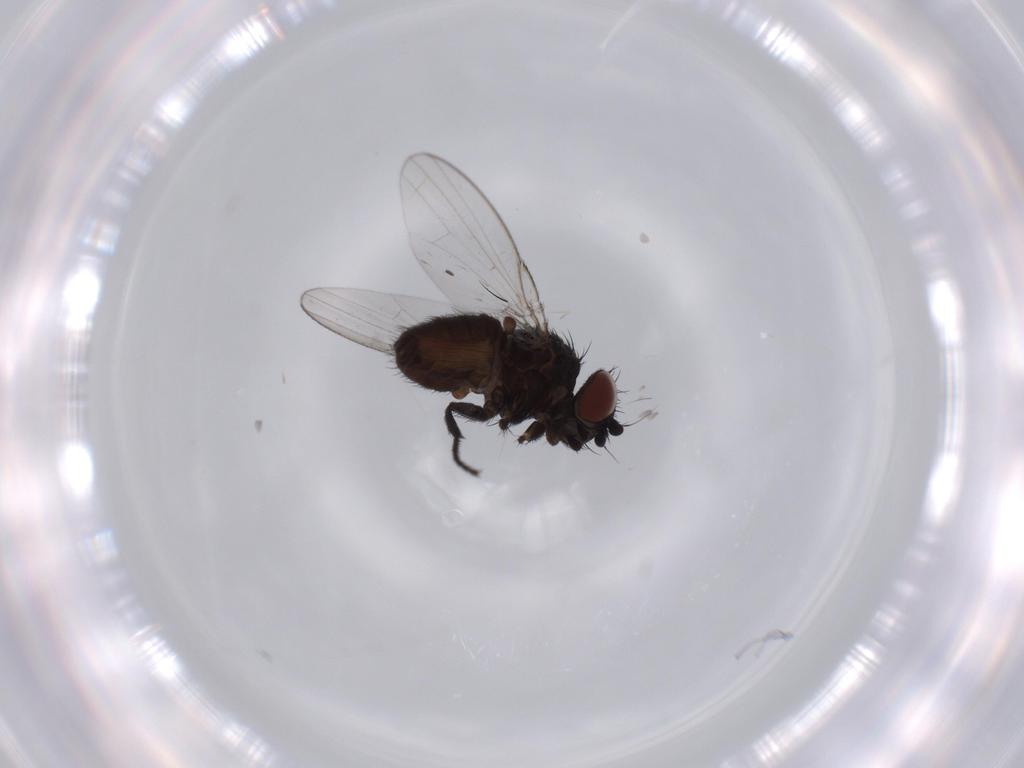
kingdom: Animalia
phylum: Arthropoda
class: Insecta
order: Diptera
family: Milichiidae
